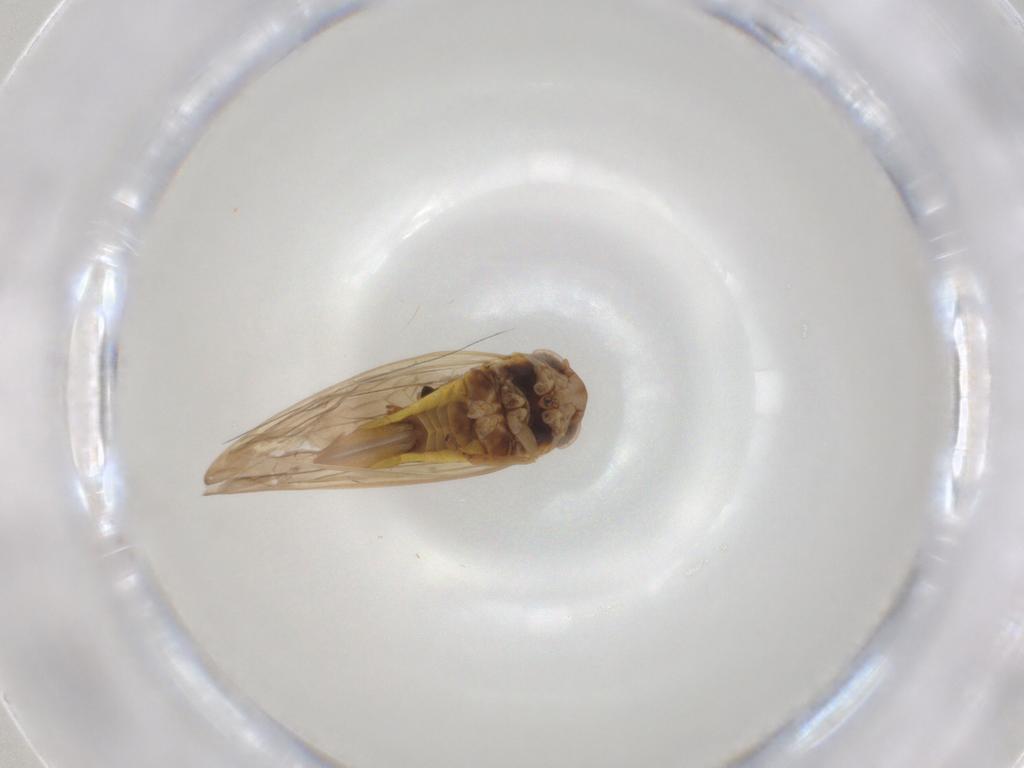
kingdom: Animalia
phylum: Arthropoda
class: Insecta
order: Hemiptera
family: Cicadellidae
